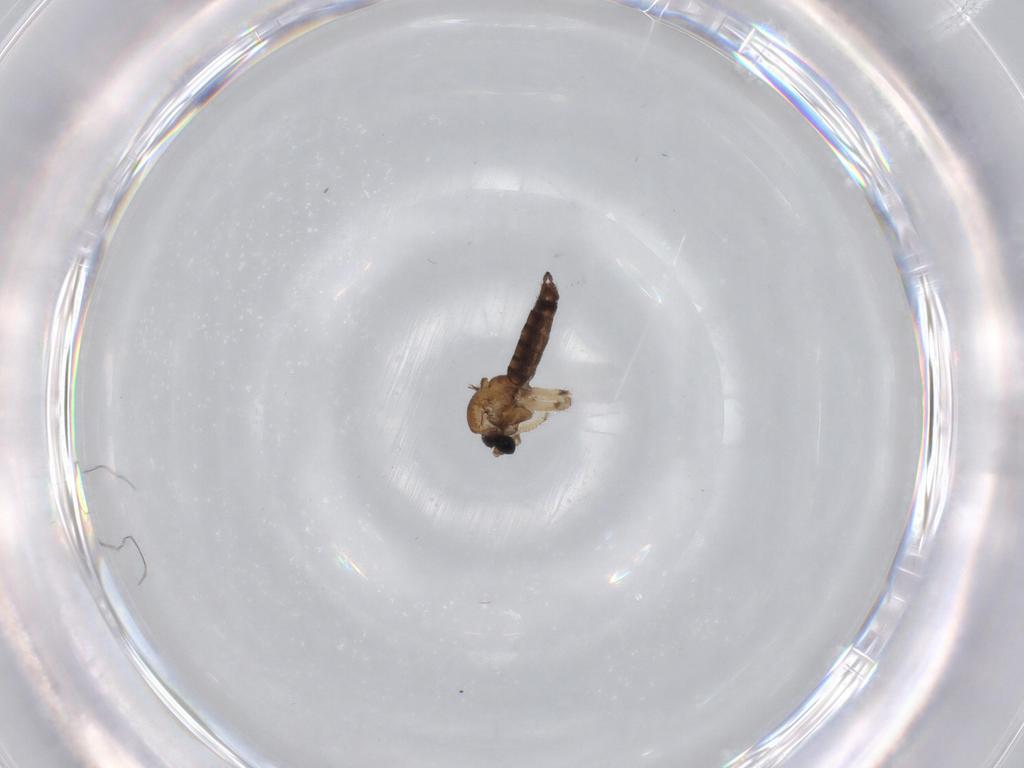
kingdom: Animalia
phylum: Arthropoda
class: Insecta
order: Diptera
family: Sciaridae
